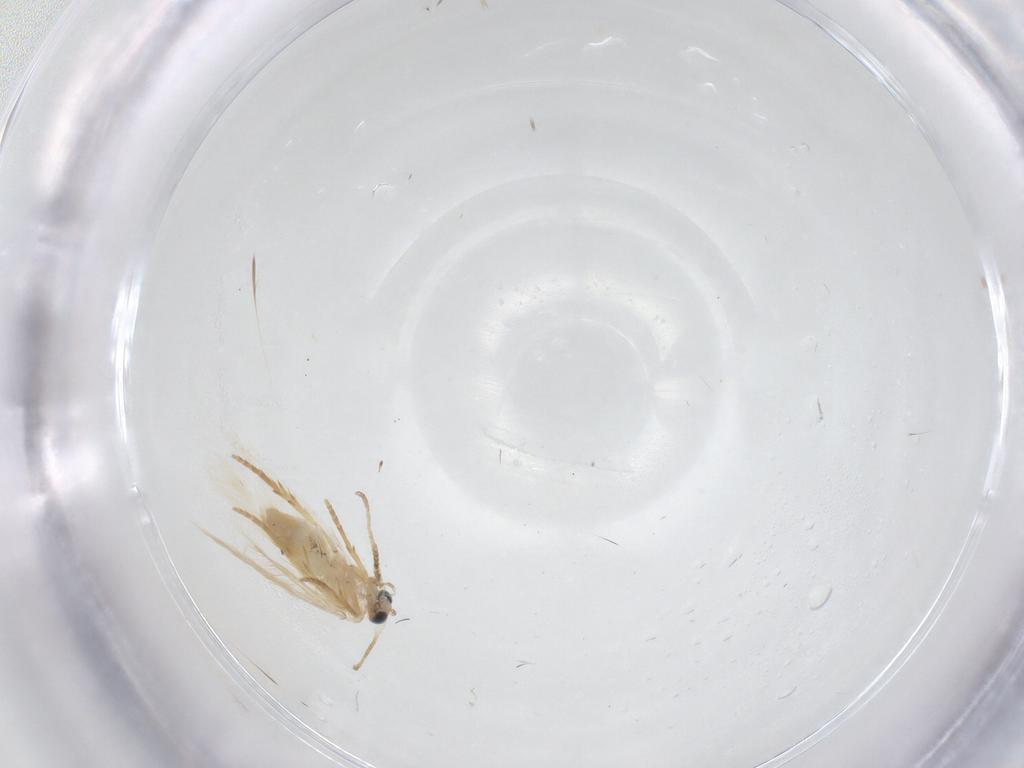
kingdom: Animalia
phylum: Arthropoda
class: Insecta
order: Lepidoptera
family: Nepticulidae
